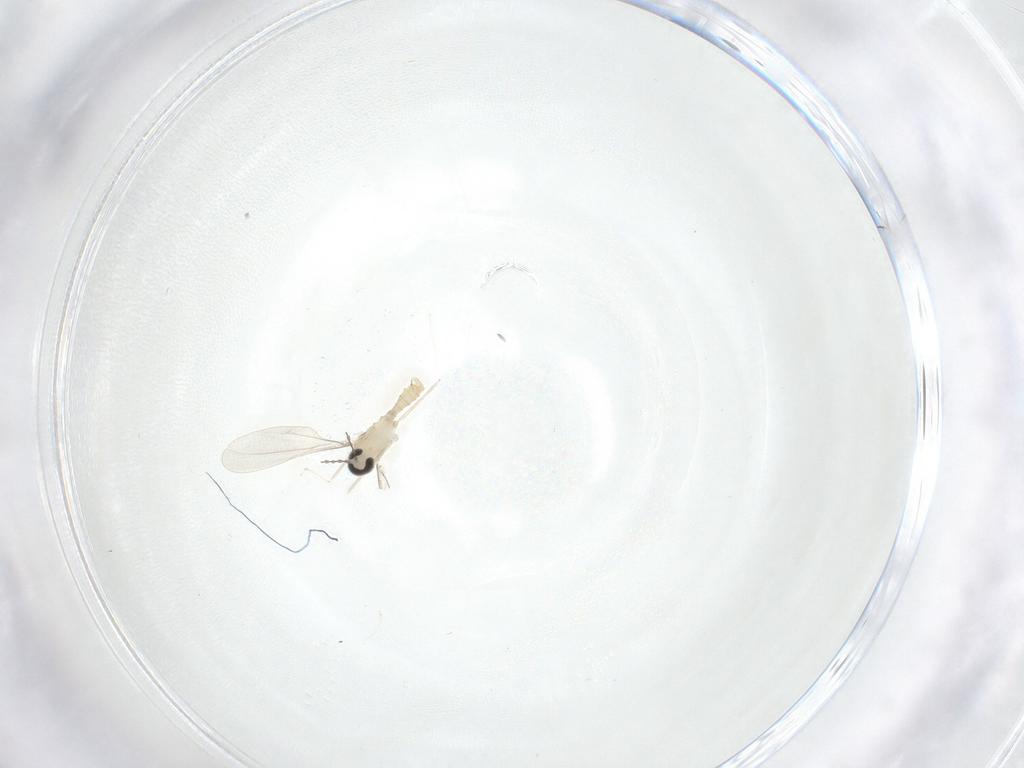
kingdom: Animalia
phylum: Arthropoda
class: Insecta
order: Diptera
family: Cecidomyiidae
